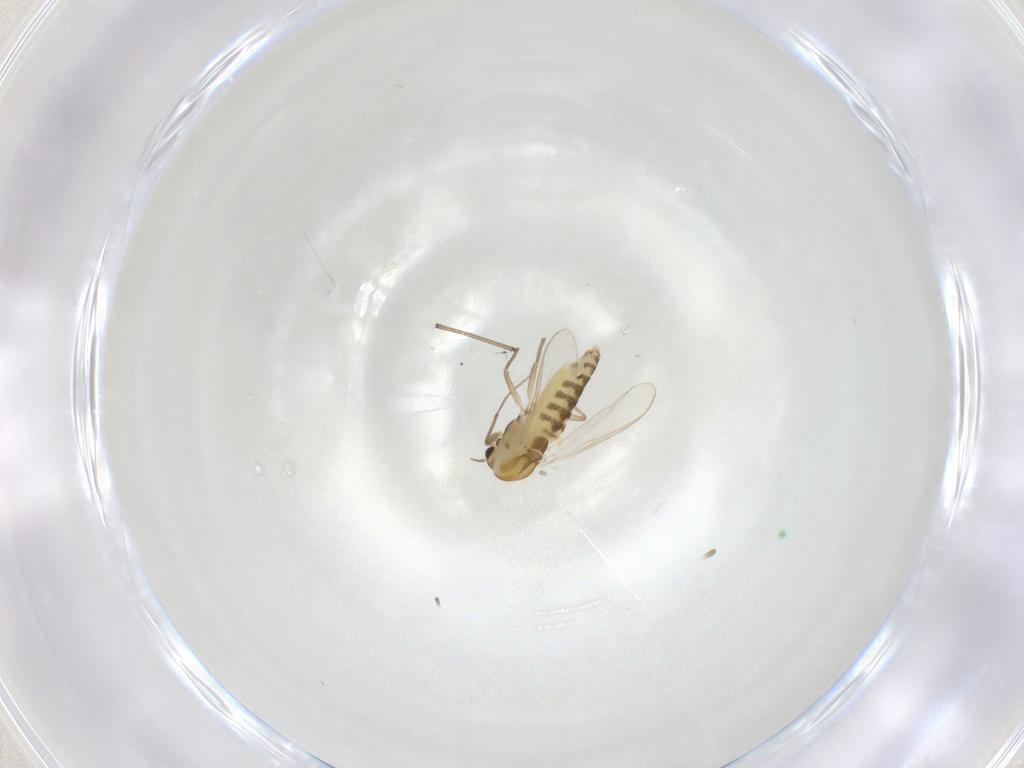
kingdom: Animalia
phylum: Arthropoda
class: Insecta
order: Diptera
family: Chironomidae
